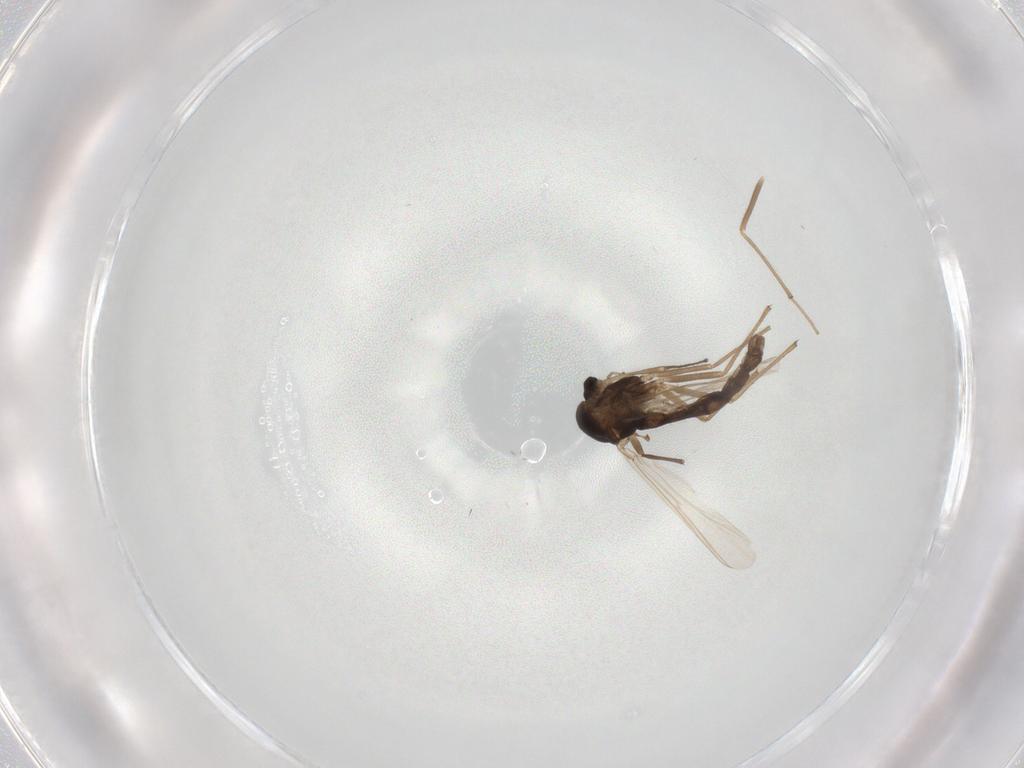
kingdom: Animalia
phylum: Arthropoda
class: Insecta
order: Diptera
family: Chironomidae
